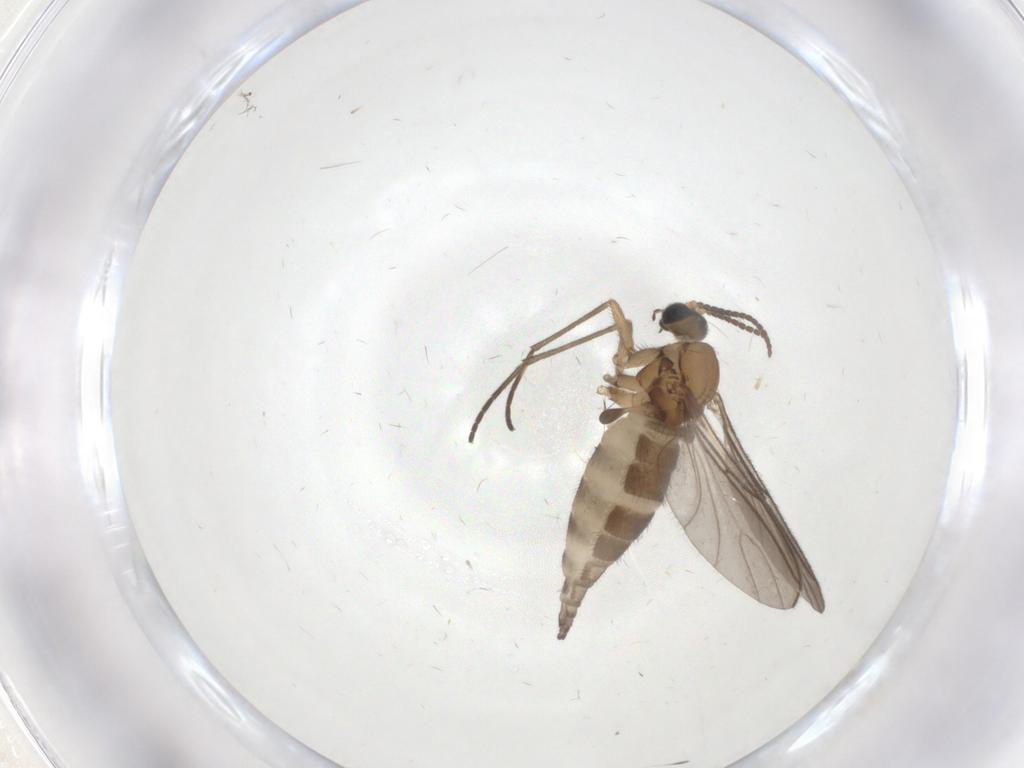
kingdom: Animalia
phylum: Arthropoda
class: Insecta
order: Diptera
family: Sciaridae
